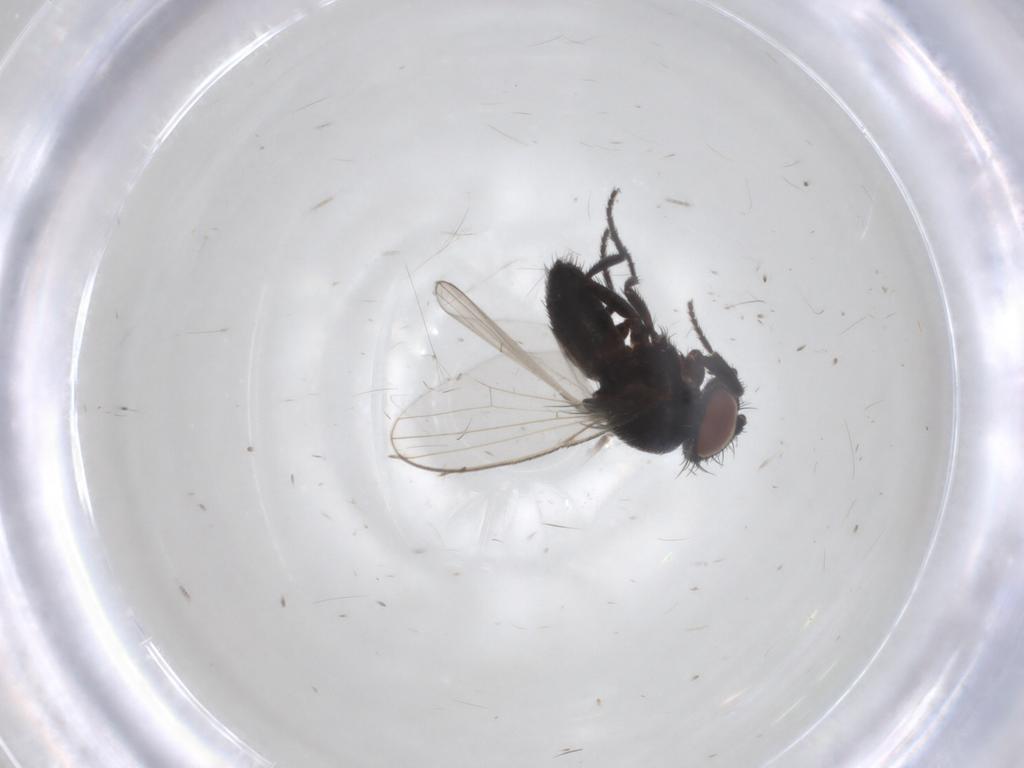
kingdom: Animalia
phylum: Arthropoda
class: Insecta
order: Diptera
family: Milichiidae
